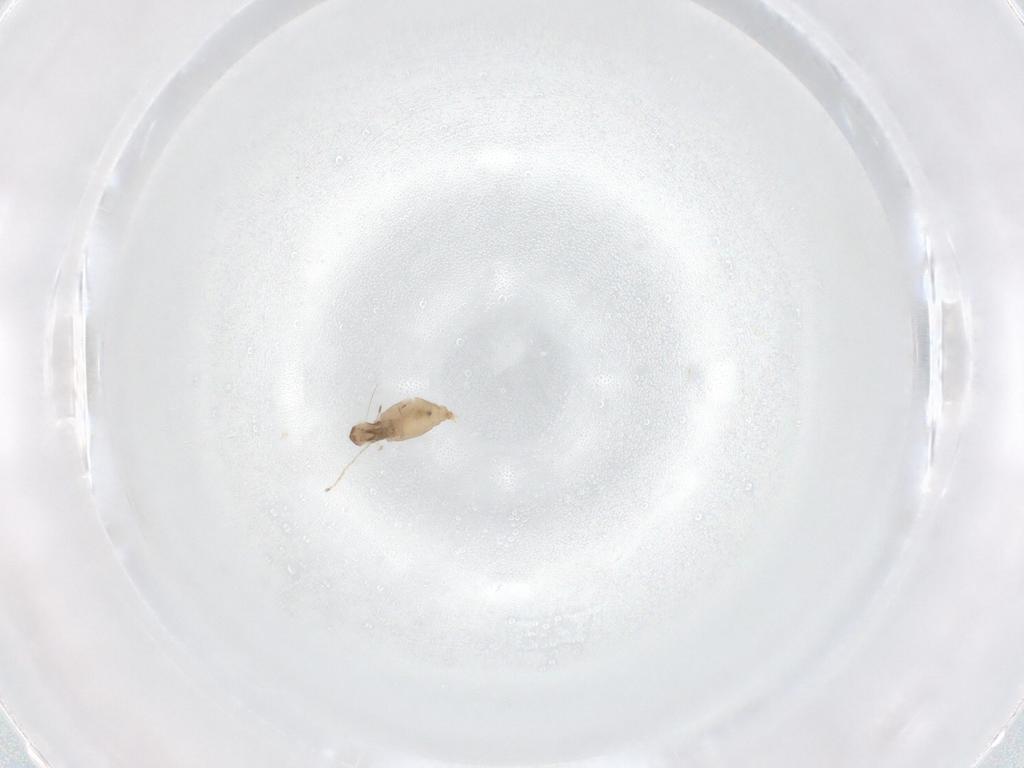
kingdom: Animalia
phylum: Arthropoda
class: Insecta
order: Diptera
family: Cecidomyiidae
